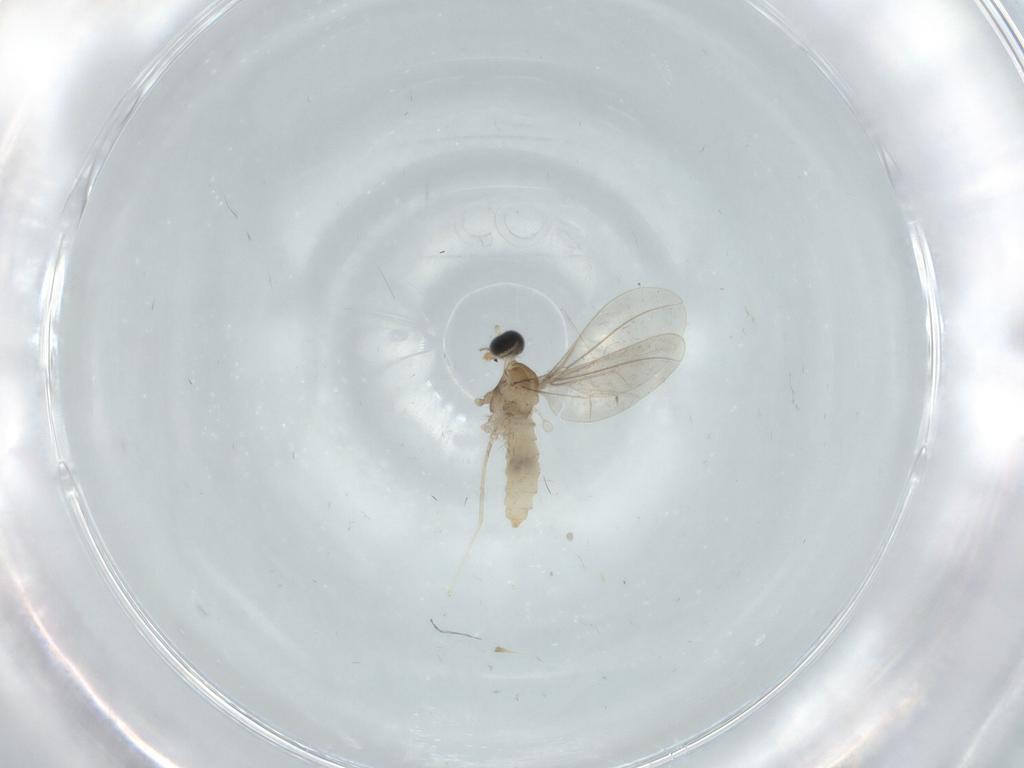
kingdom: Animalia
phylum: Arthropoda
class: Insecta
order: Diptera
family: Cecidomyiidae
